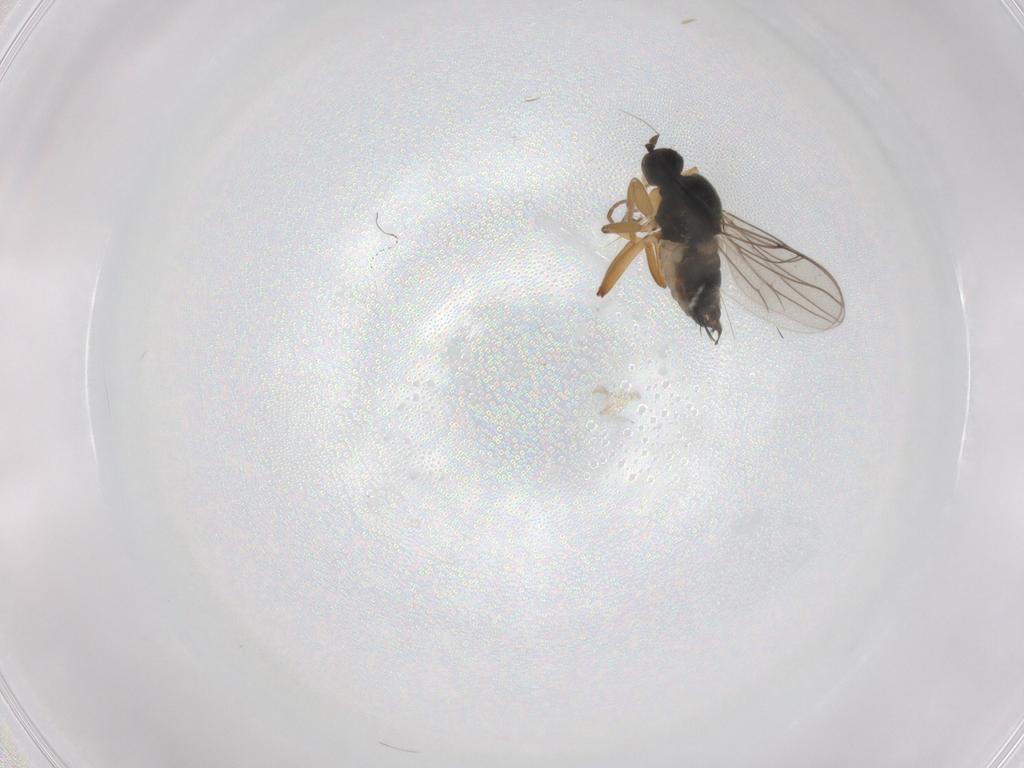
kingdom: Animalia
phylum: Arthropoda
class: Insecta
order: Diptera
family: Hybotidae
